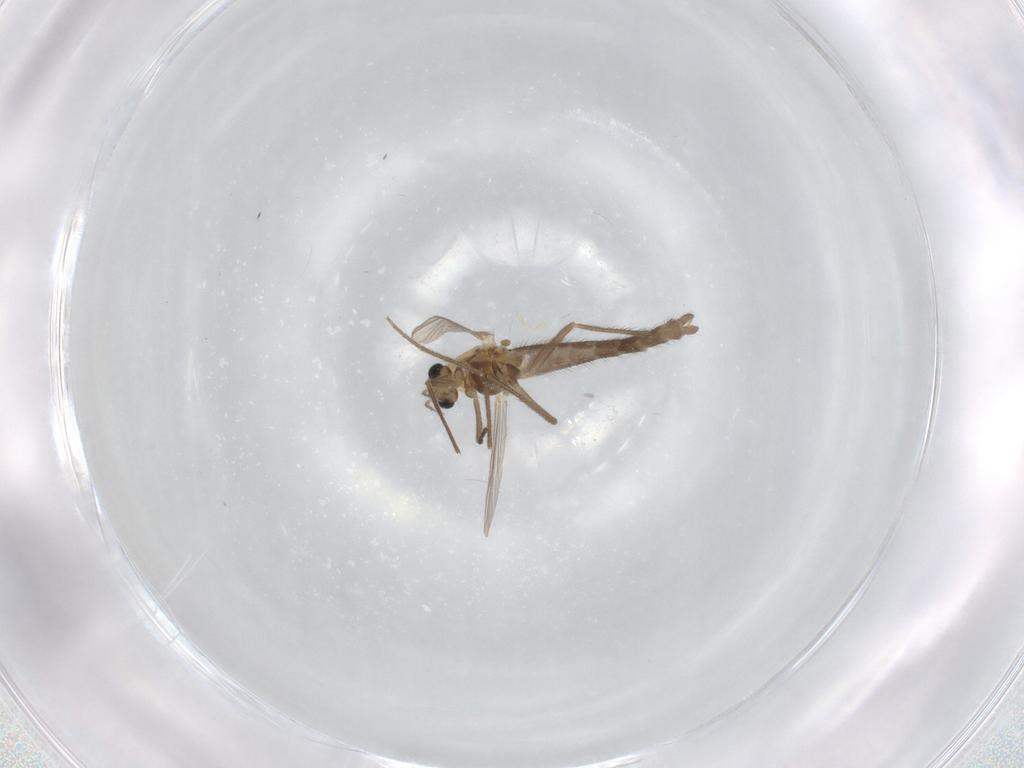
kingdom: Animalia
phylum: Arthropoda
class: Insecta
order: Diptera
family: Chironomidae
